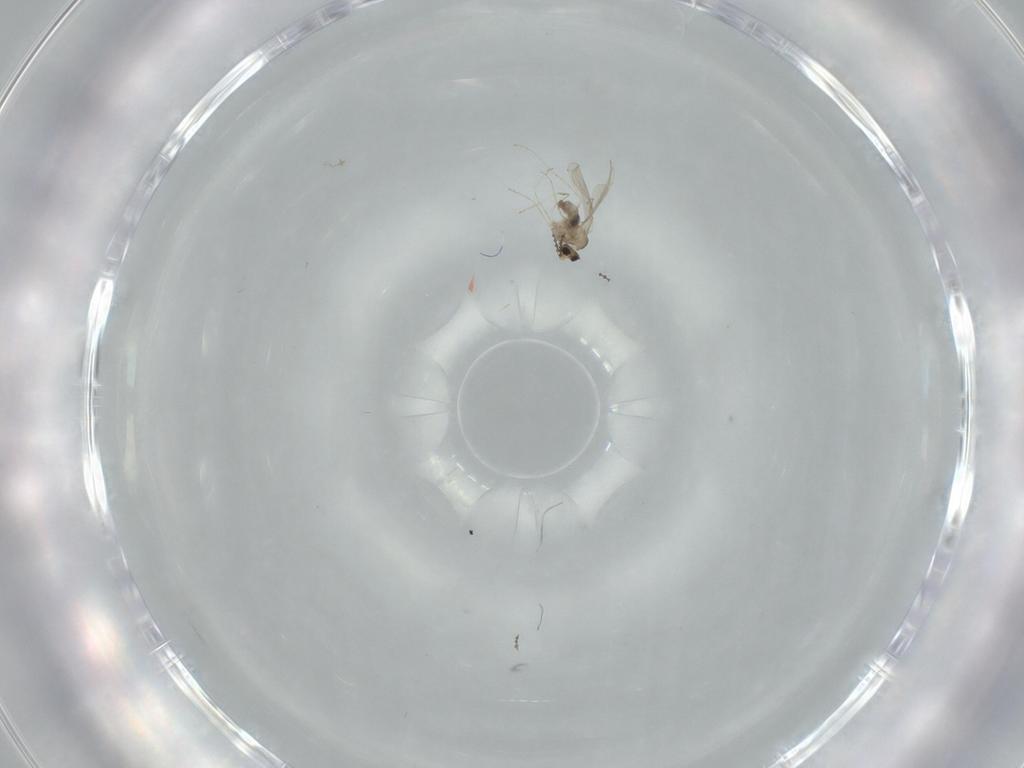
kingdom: Animalia
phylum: Arthropoda
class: Insecta
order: Diptera
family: Cecidomyiidae
